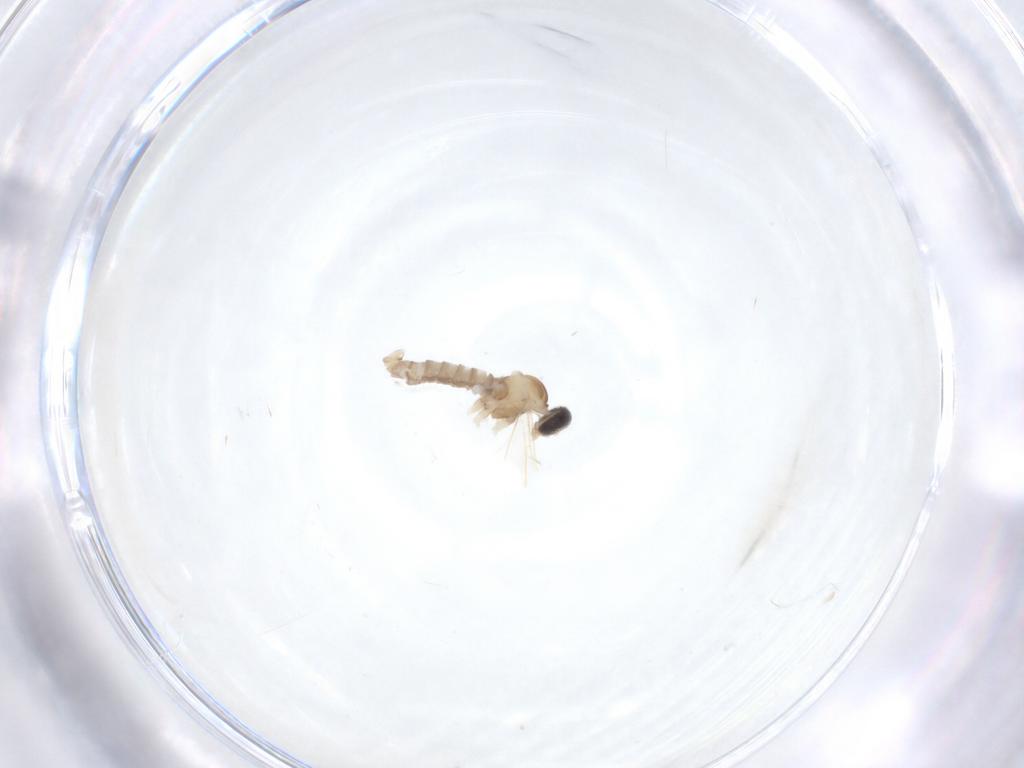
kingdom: Animalia
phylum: Arthropoda
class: Insecta
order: Diptera
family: Cecidomyiidae
